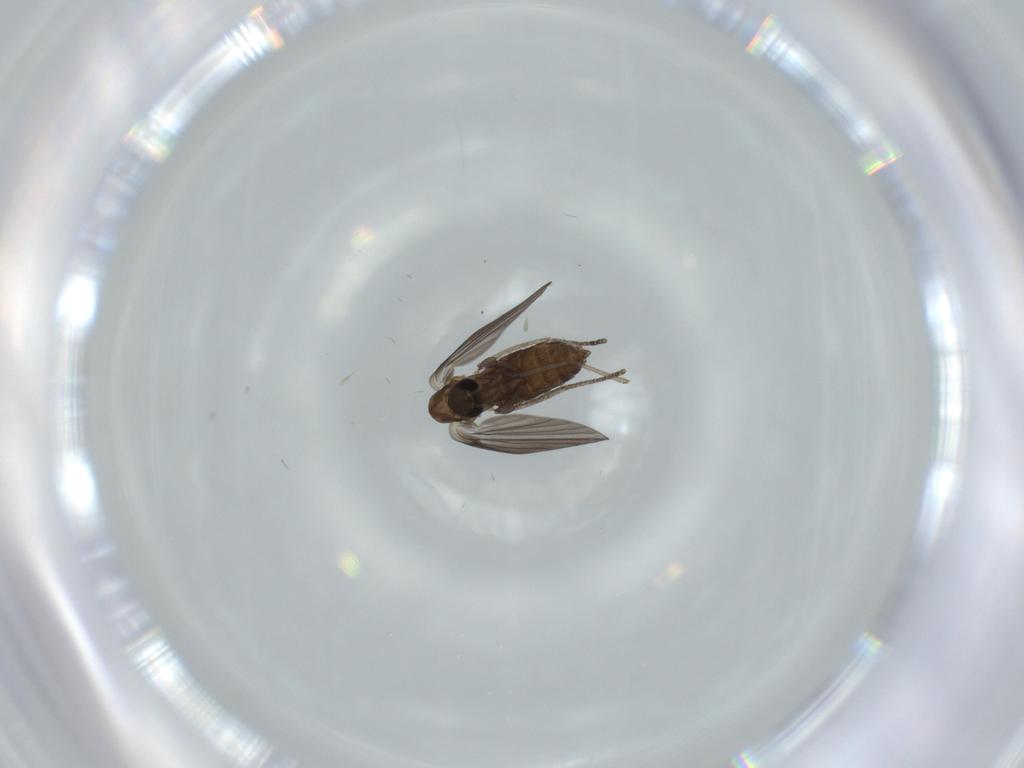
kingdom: Animalia
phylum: Arthropoda
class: Insecta
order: Diptera
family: Psychodidae
